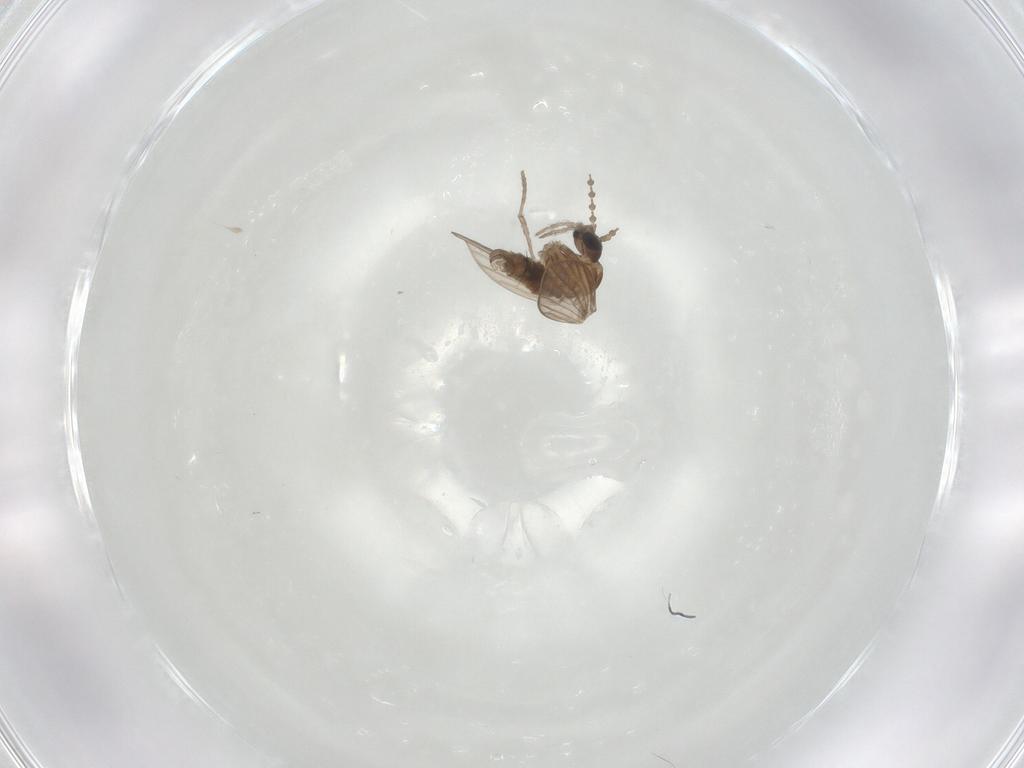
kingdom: Animalia
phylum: Arthropoda
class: Insecta
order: Diptera
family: Psychodidae
